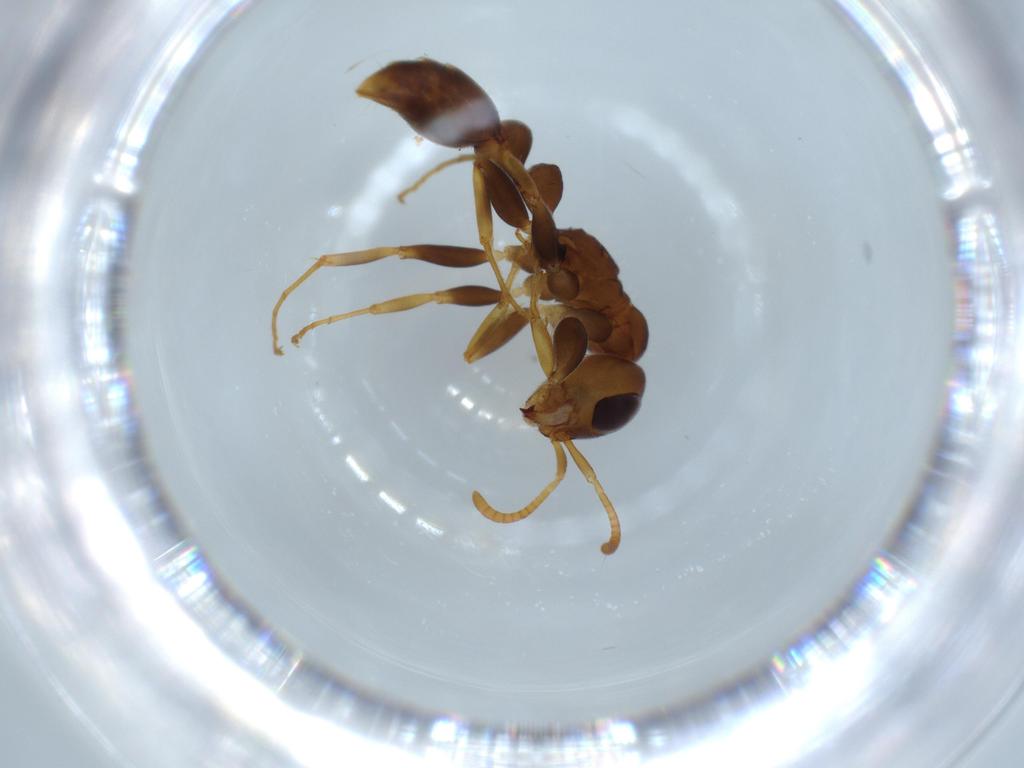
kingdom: Animalia
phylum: Arthropoda
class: Insecta
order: Hymenoptera
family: Formicidae
